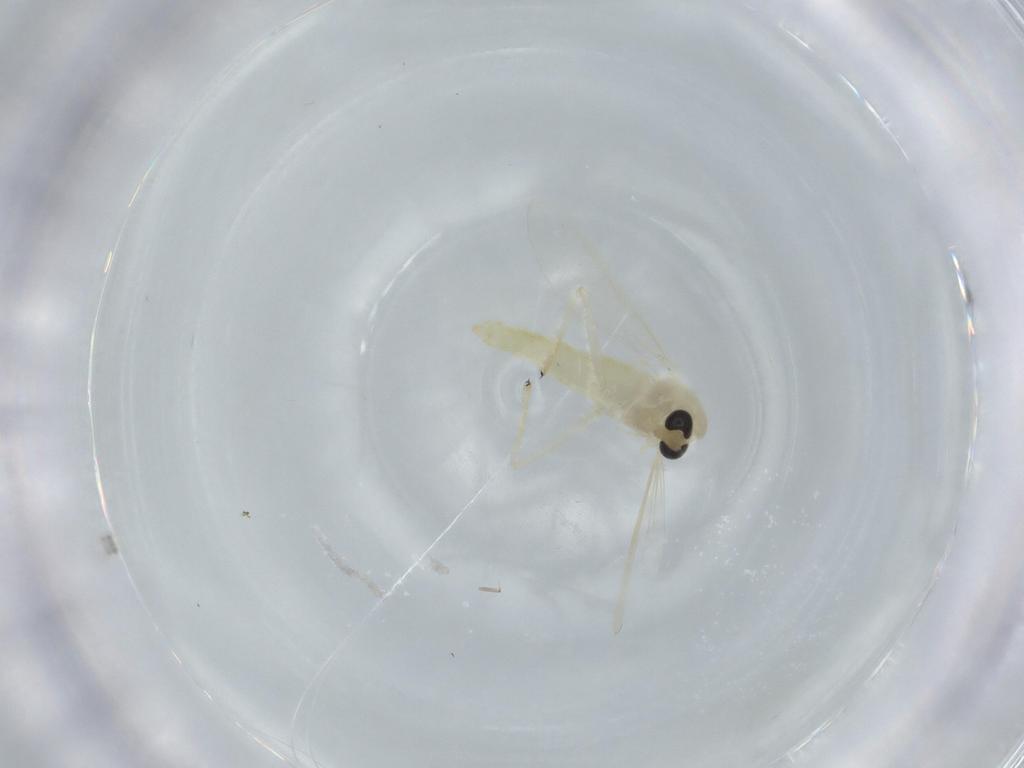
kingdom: Animalia
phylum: Arthropoda
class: Insecta
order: Diptera
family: Chironomidae
